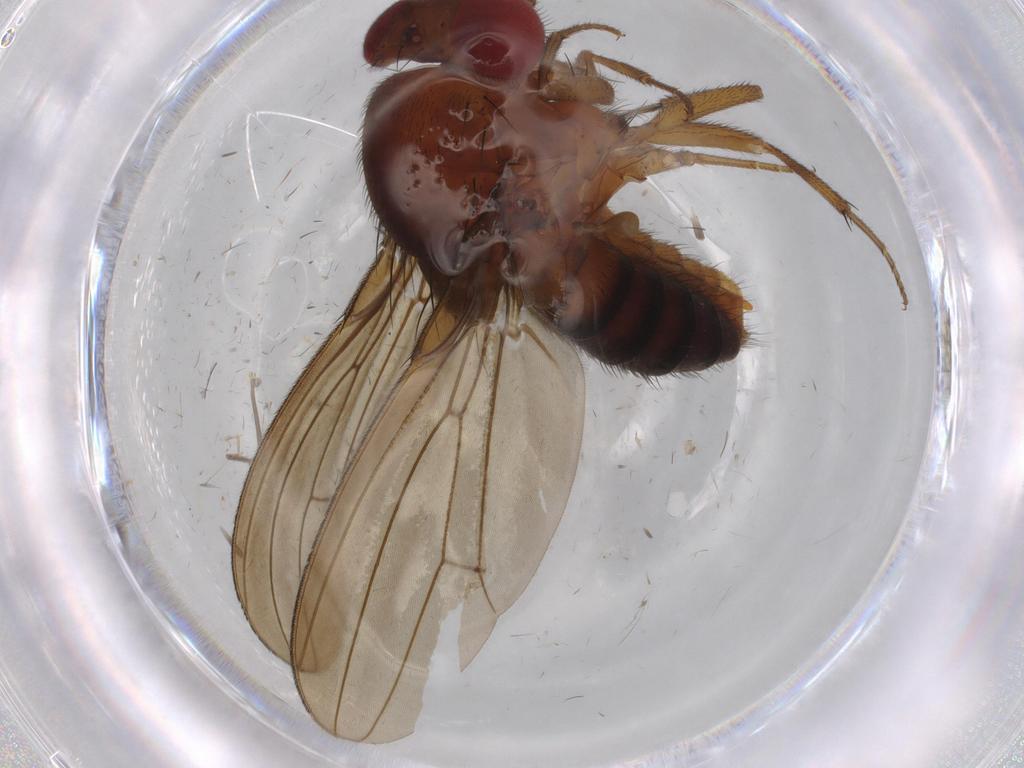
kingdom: Animalia
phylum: Arthropoda
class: Insecta
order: Diptera
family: Drosophilidae
